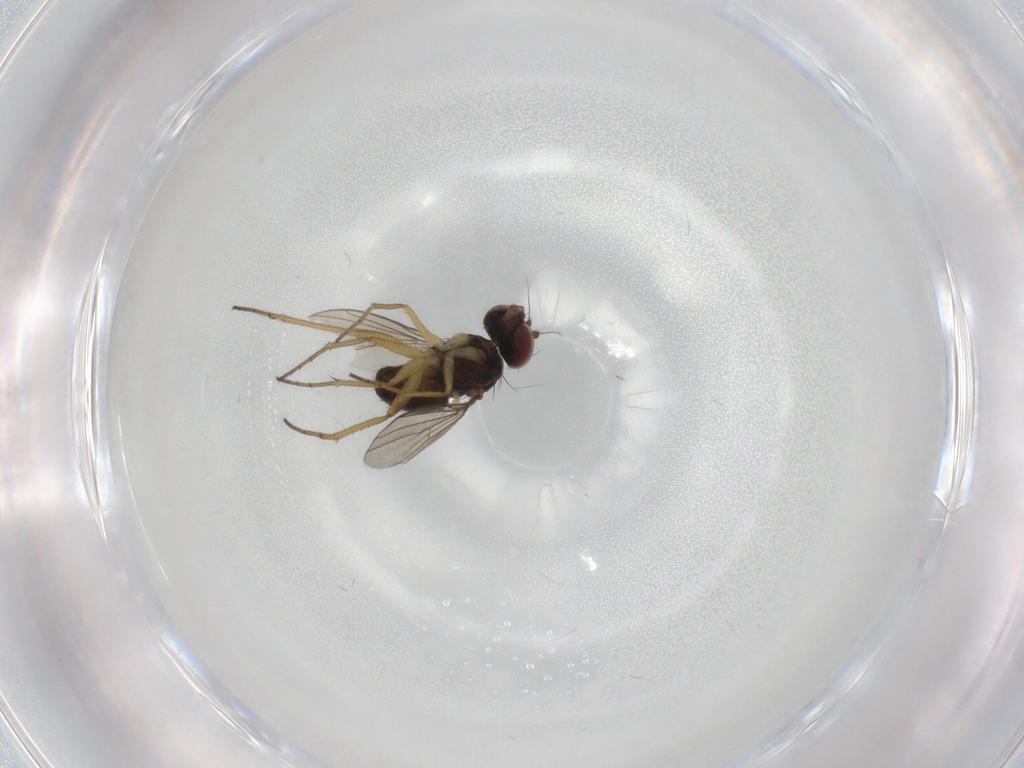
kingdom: Animalia
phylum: Arthropoda
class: Insecta
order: Diptera
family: Dolichopodidae
